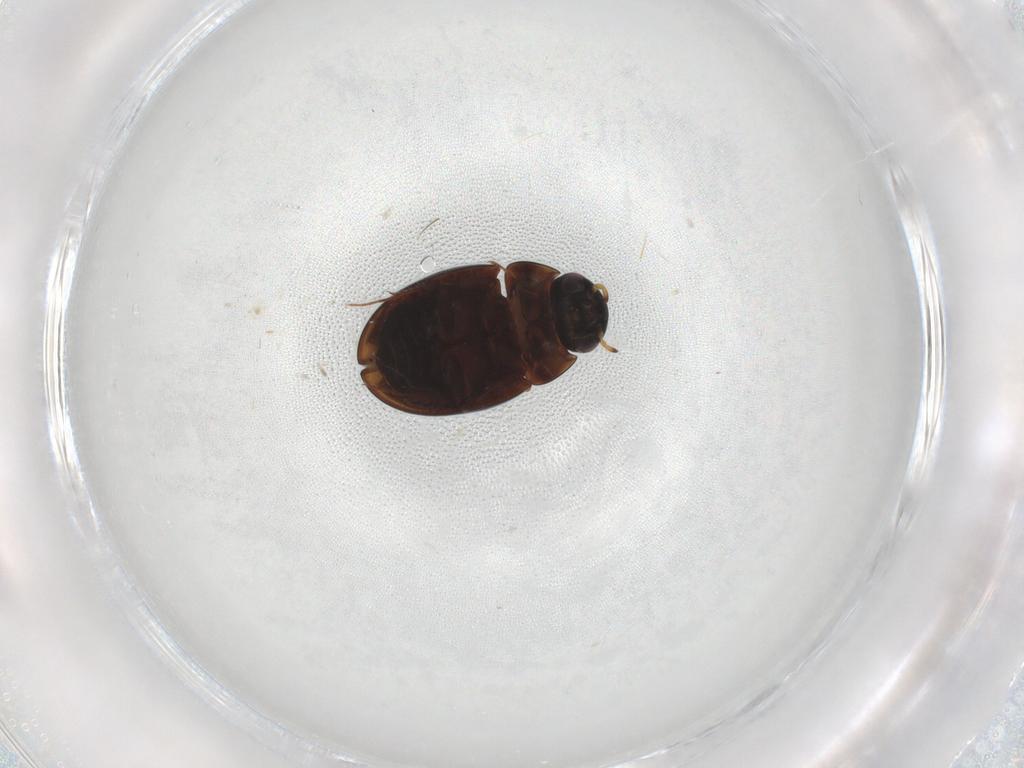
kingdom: Animalia
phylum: Arthropoda
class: Insecta
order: Coleoptera
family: Hydrophilidae
